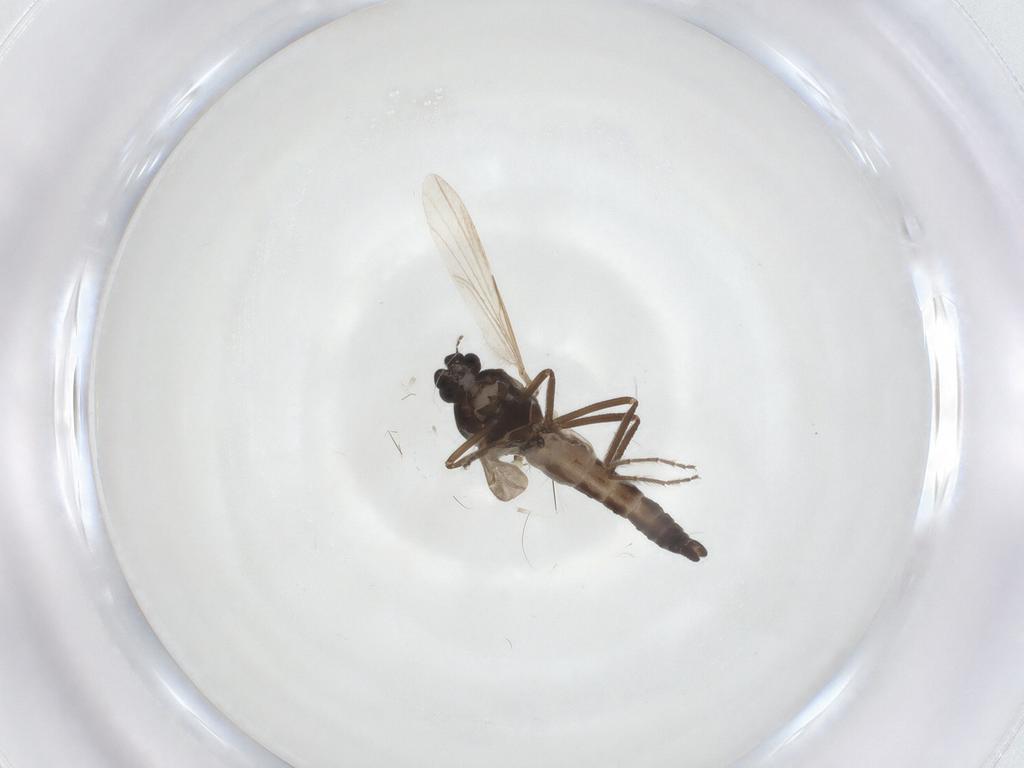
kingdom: Animalia
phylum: Arthropoda
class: Insecta
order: Diptera
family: Ceratopogonidae
